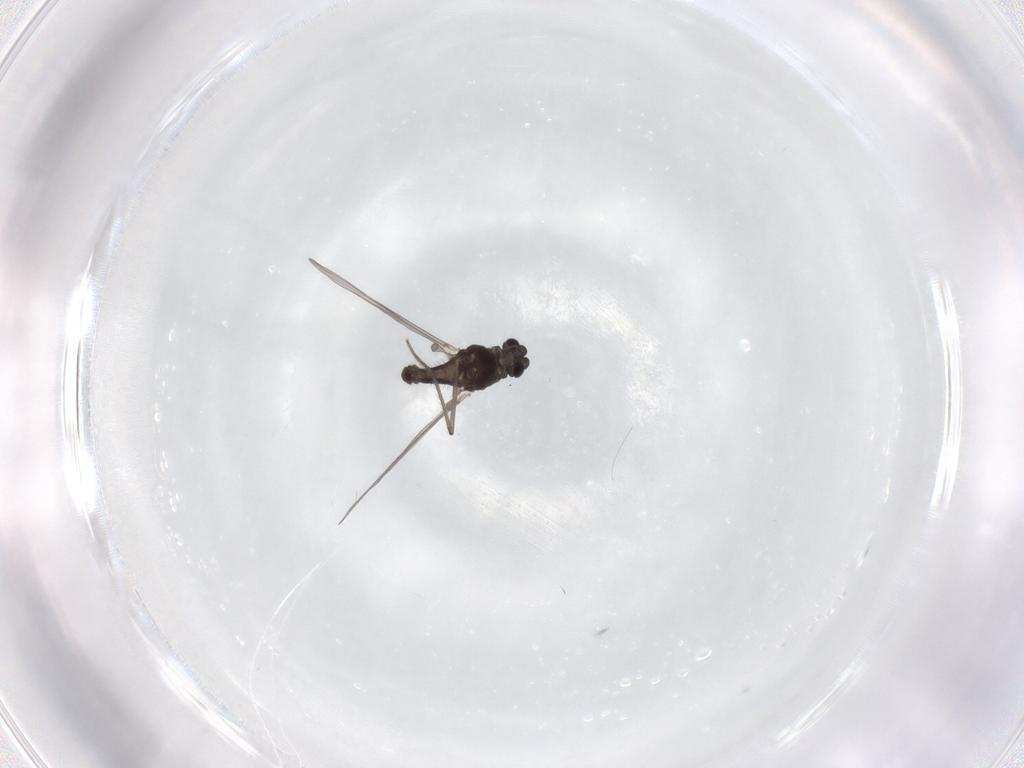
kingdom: Animalia
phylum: Arthropoda
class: Insecta
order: Diptera
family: Chironomidae
